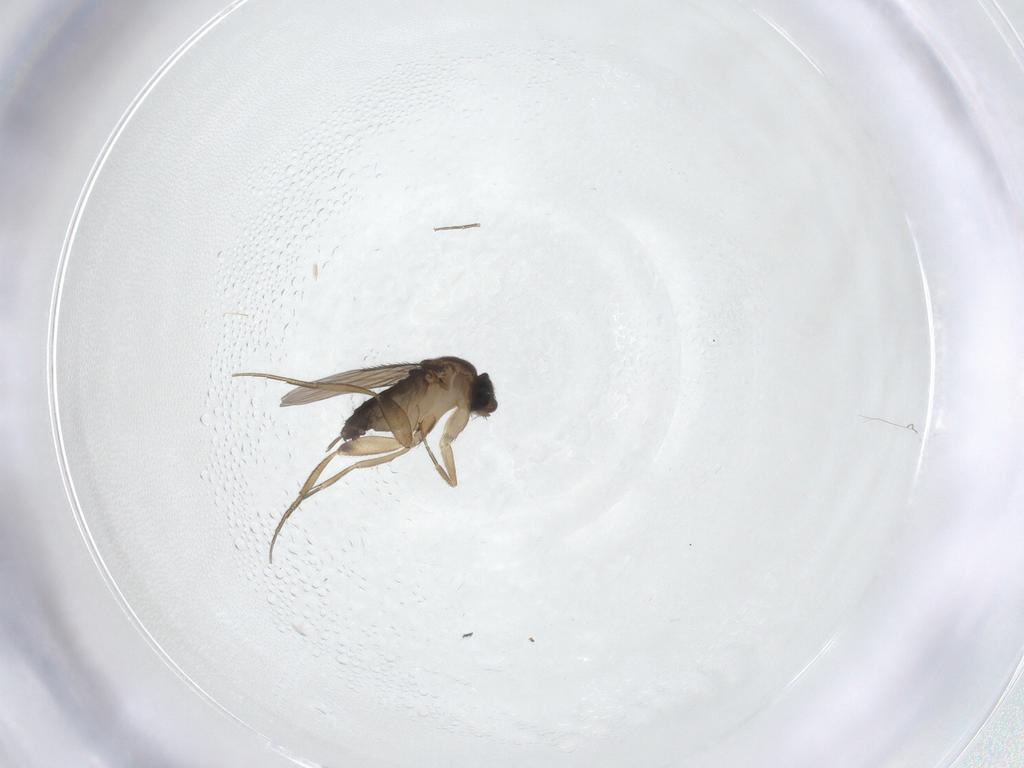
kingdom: Animalia
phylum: Arthropoda
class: Insecta
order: Diptera
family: Phoridae
